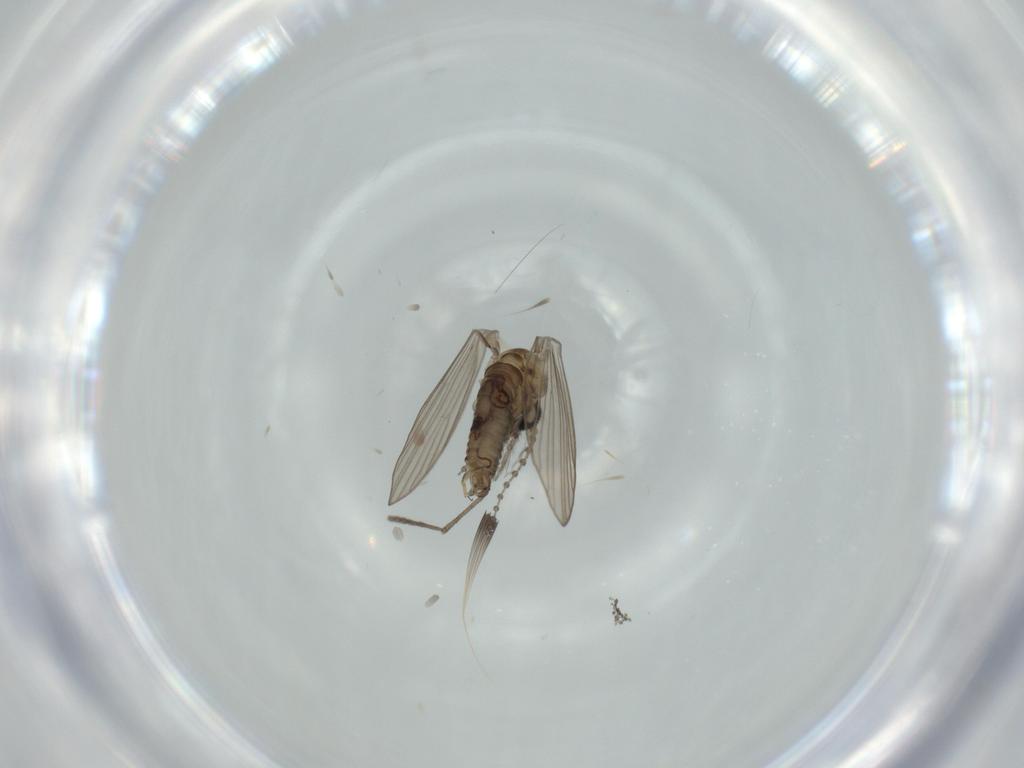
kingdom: Animalia
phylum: Arthropoda
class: Insecta
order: Diptera
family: Psychodidae
